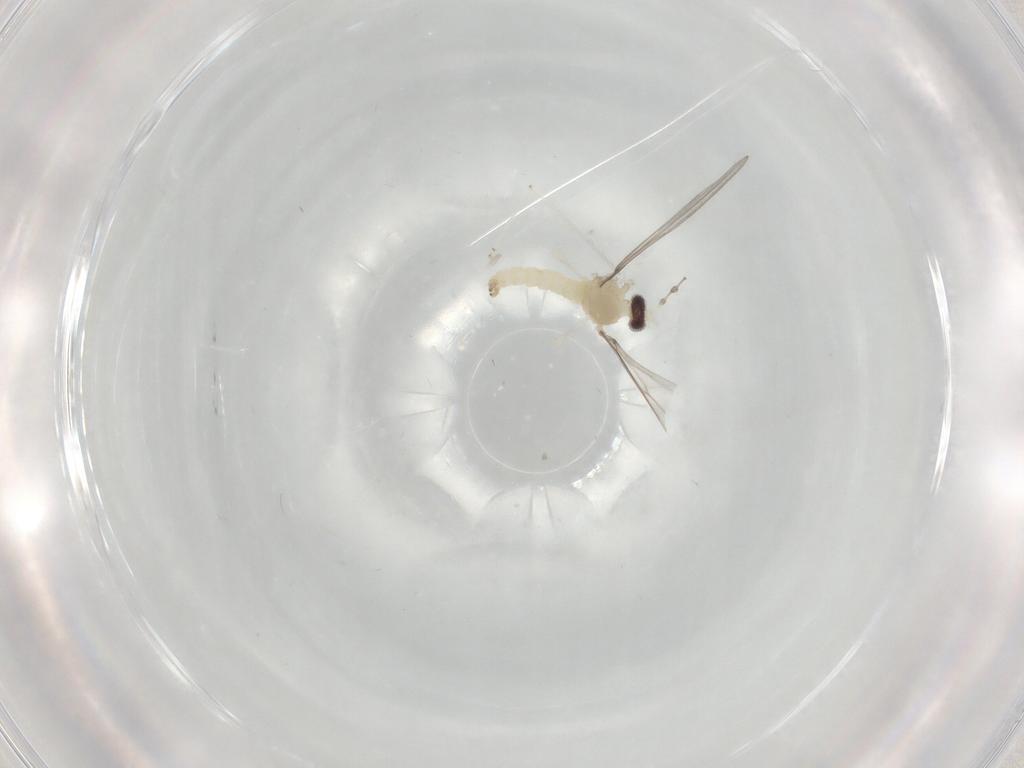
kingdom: Animalia
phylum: Arthropoda
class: Insecta
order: Diptera
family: Cecidomyiidae
